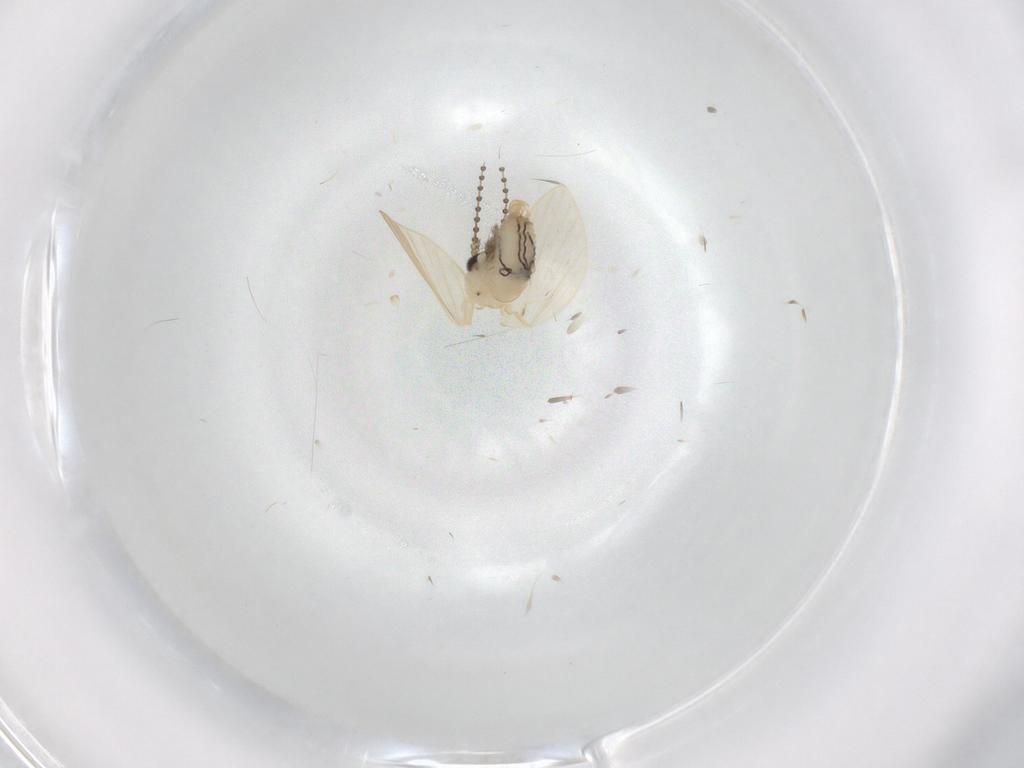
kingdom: Animalia
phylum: Arthropoda
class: Insecta
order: Diptera
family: Psychodidae
